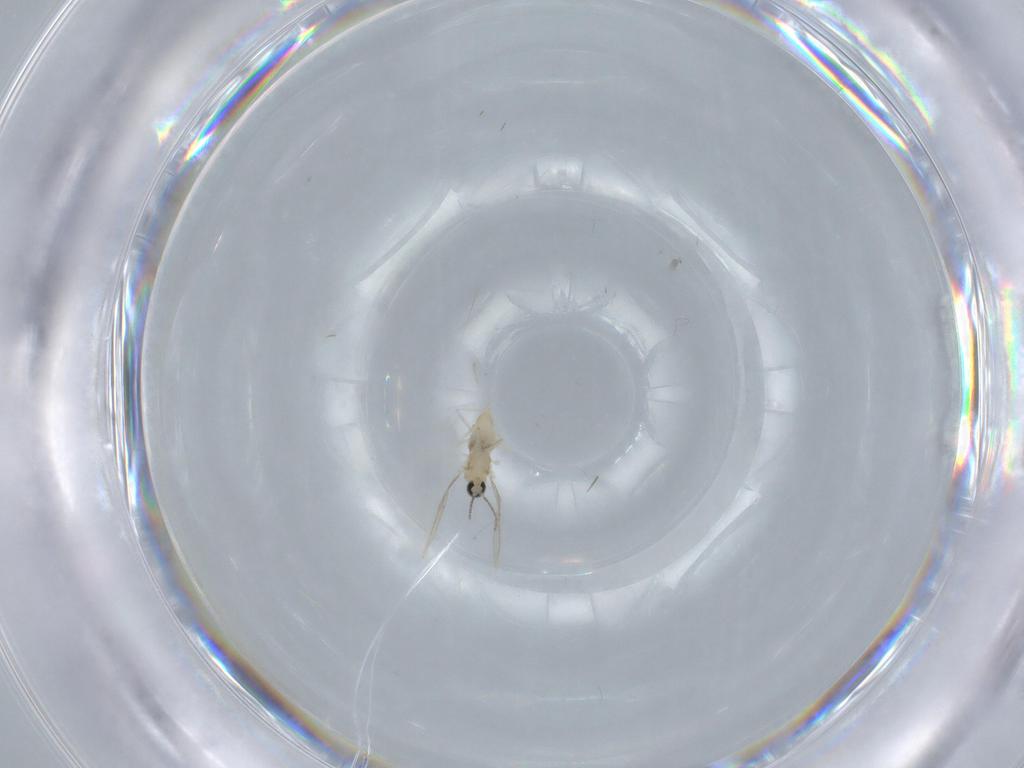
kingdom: Animalia
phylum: Arthropoda
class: Insecta
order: Diptera
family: Cecidomyiidae
